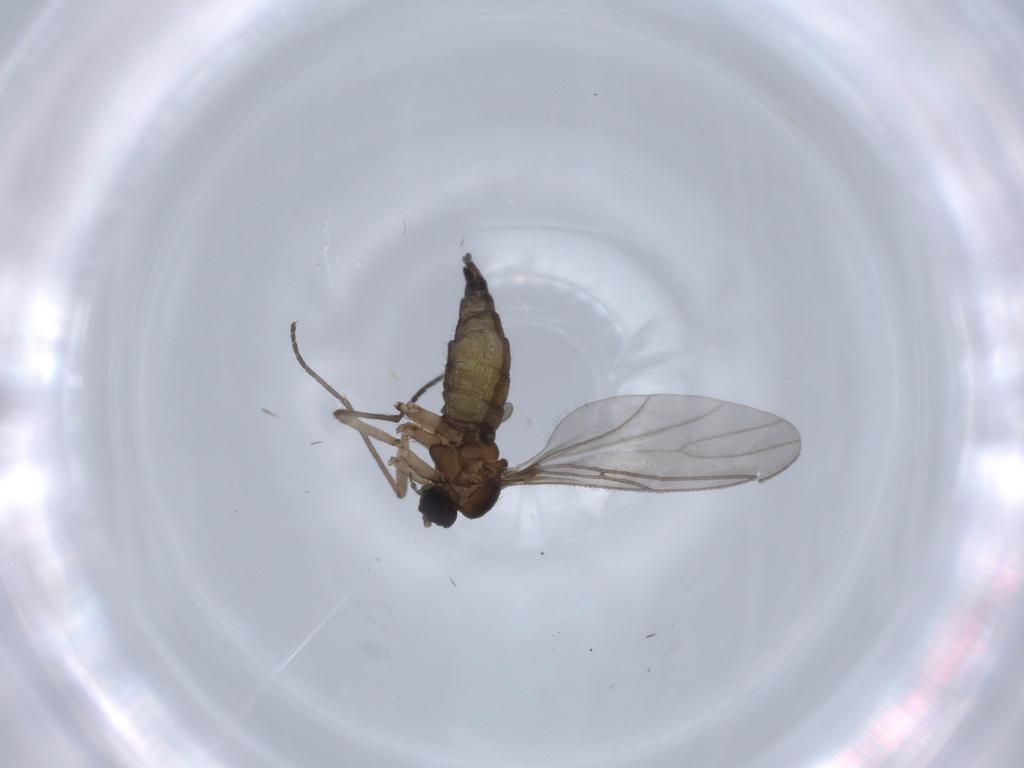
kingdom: Animalia
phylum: Arthropoda
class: Insecta
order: Diptera
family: Sciaridae
